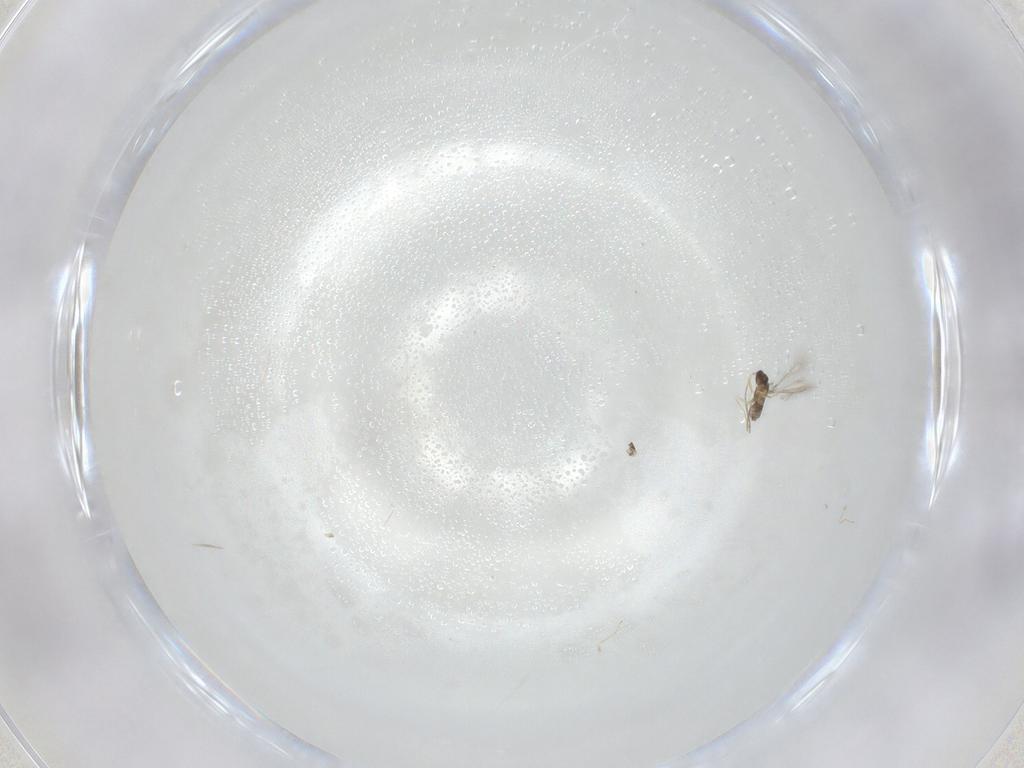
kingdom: Animalia
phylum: Arthropoda
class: Insecta
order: Hymenoptera
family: Mymaridae
